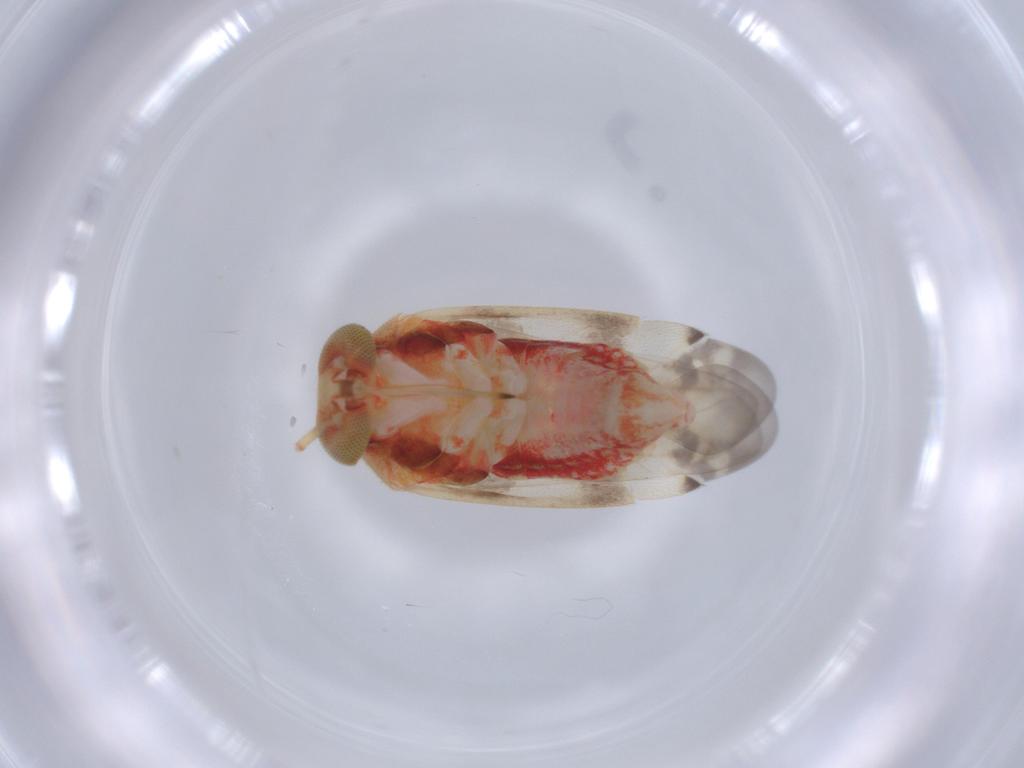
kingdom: Animalia
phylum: Arthropoda
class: Insecta
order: Hemiptera
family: Miridae
